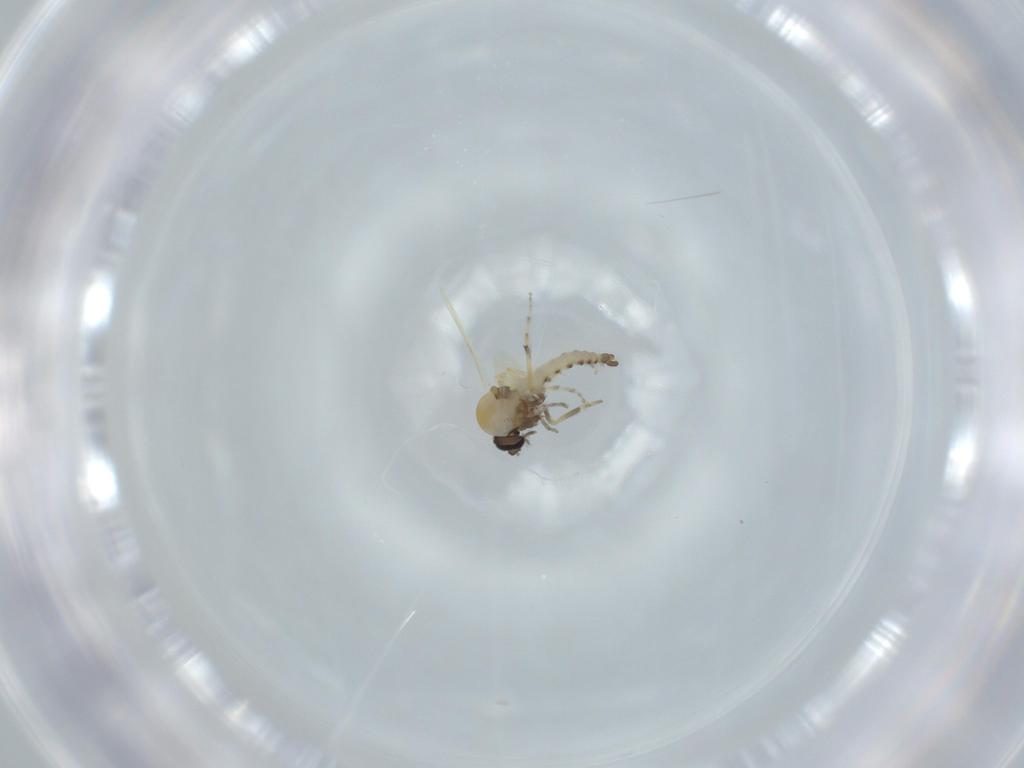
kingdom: Animalia
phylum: Arthropoda
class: Insecta
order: Diptera
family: Ceratopogonidae
